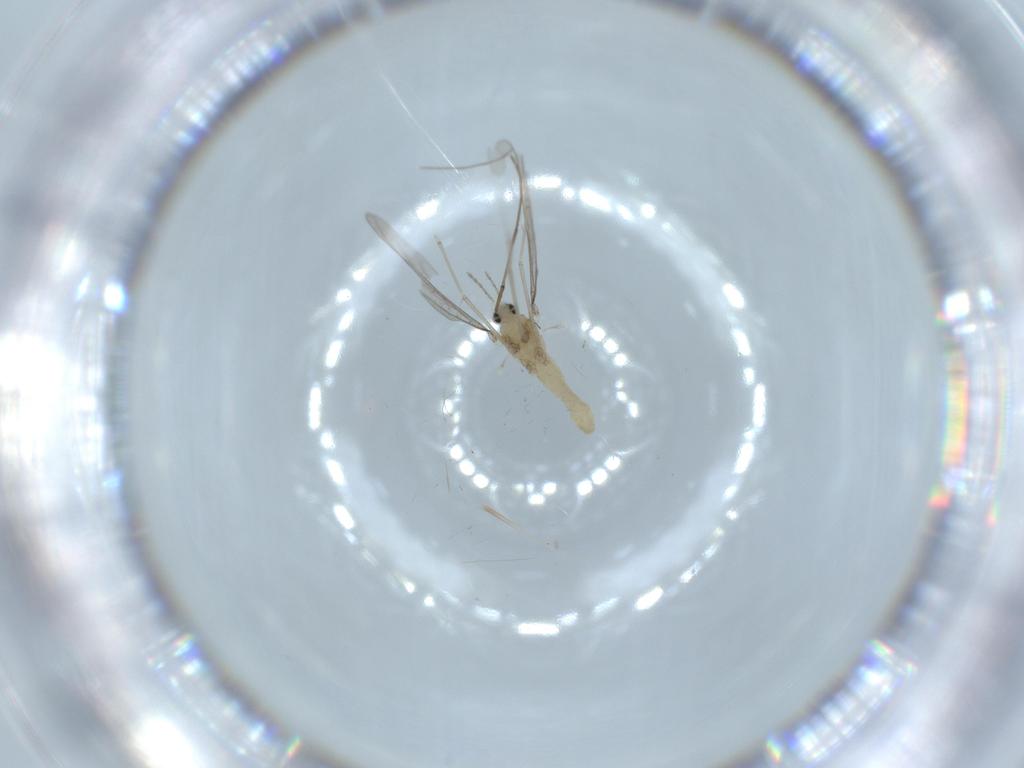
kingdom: Animalia
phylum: Arthropoda
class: Insecta
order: Diptera
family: Cecidomyiidae
